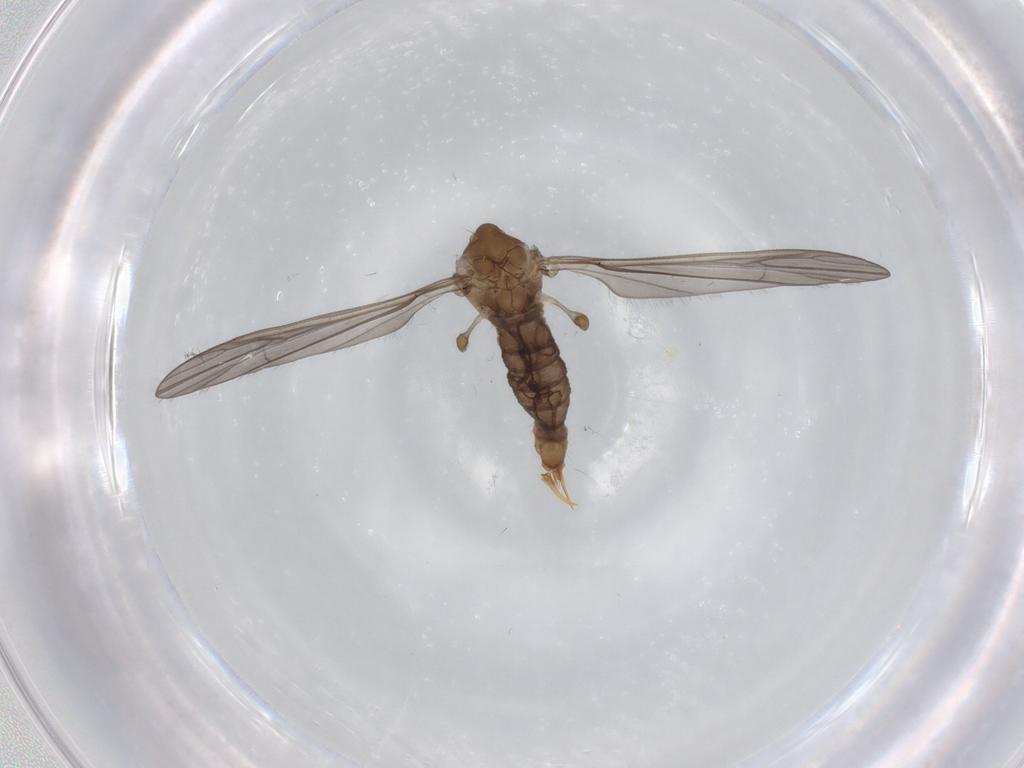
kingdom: Animalia
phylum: Arthropoda
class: Insecta
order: Diptera
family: Limoniidae
